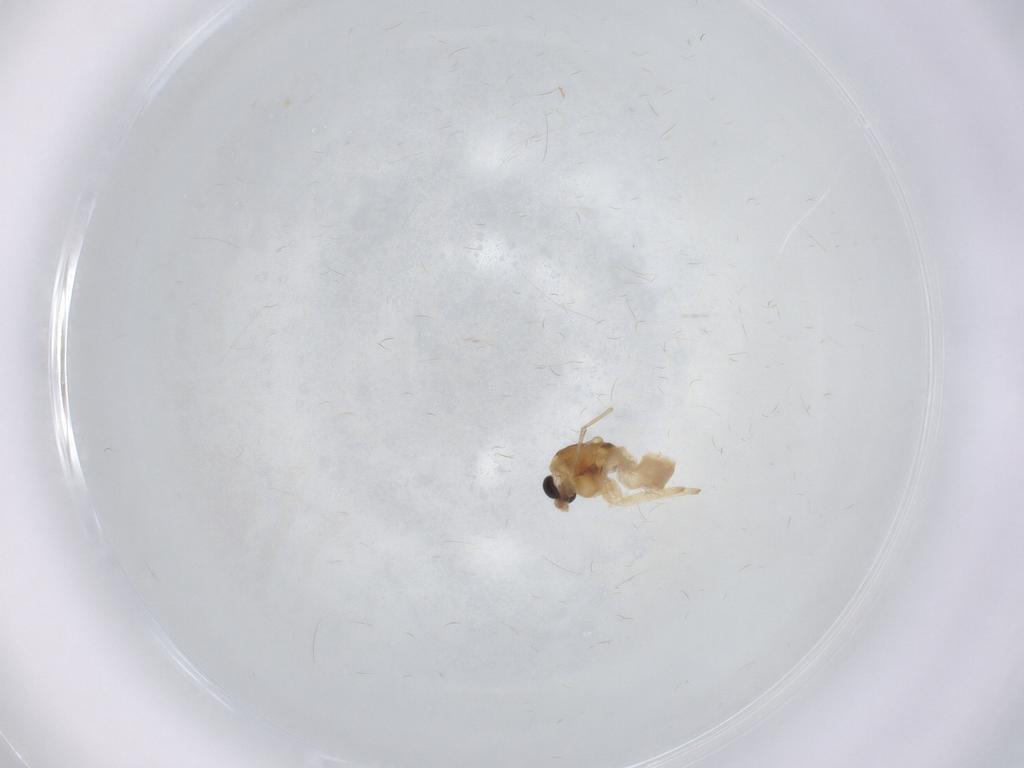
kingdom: Animalia
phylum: Arthropoda
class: Insecta
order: Diptera
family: Chironomidae
